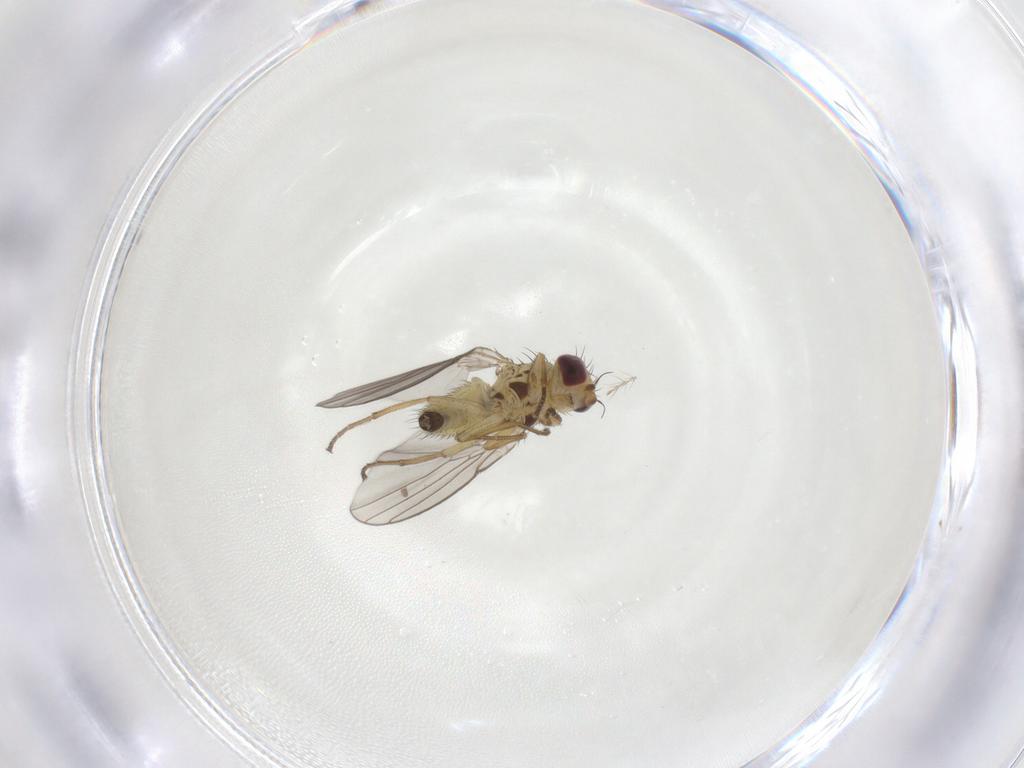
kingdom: Animalia
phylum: Arthropoda
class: Insecta
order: Diptera
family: Agromyzidae
